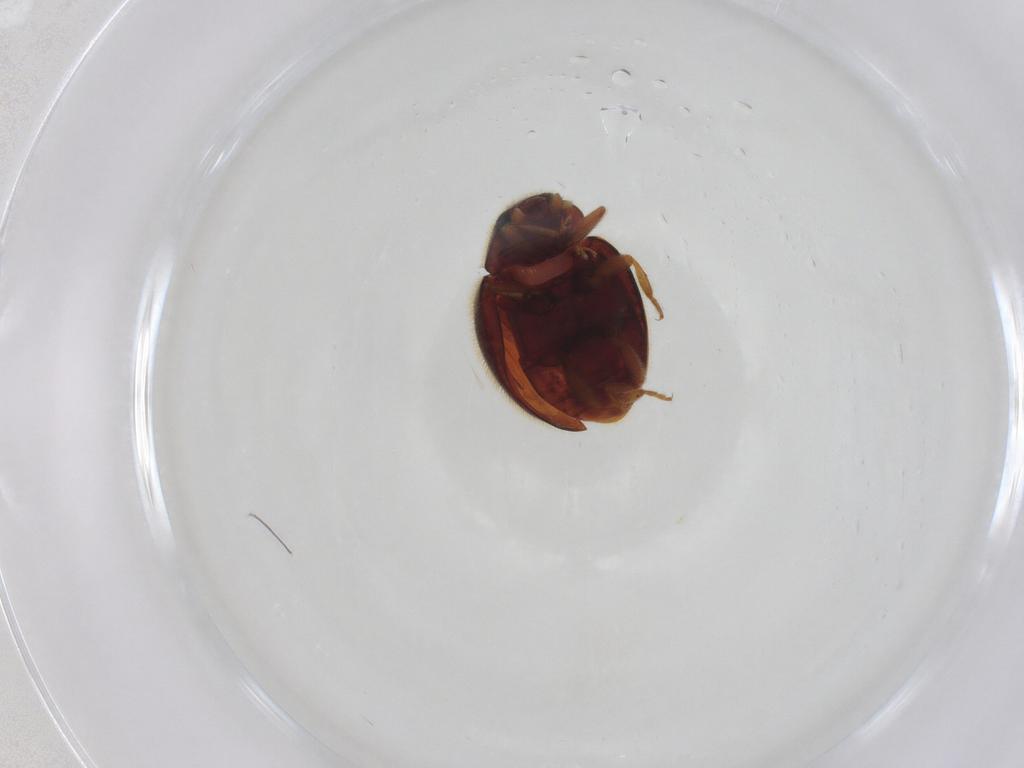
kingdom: Animalia
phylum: Arthropoda
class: Insecta
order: Coleoptera
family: Coccinellidae
